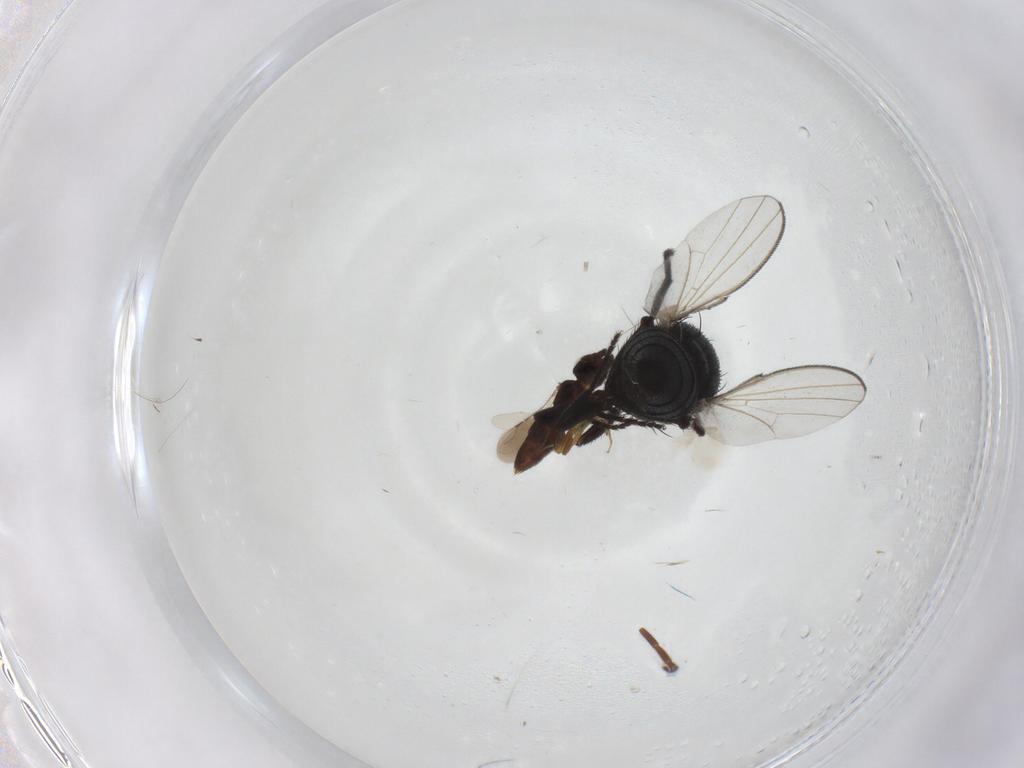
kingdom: Animalia
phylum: Arthropoda
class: Insecta
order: Diptera
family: Milichiidae
